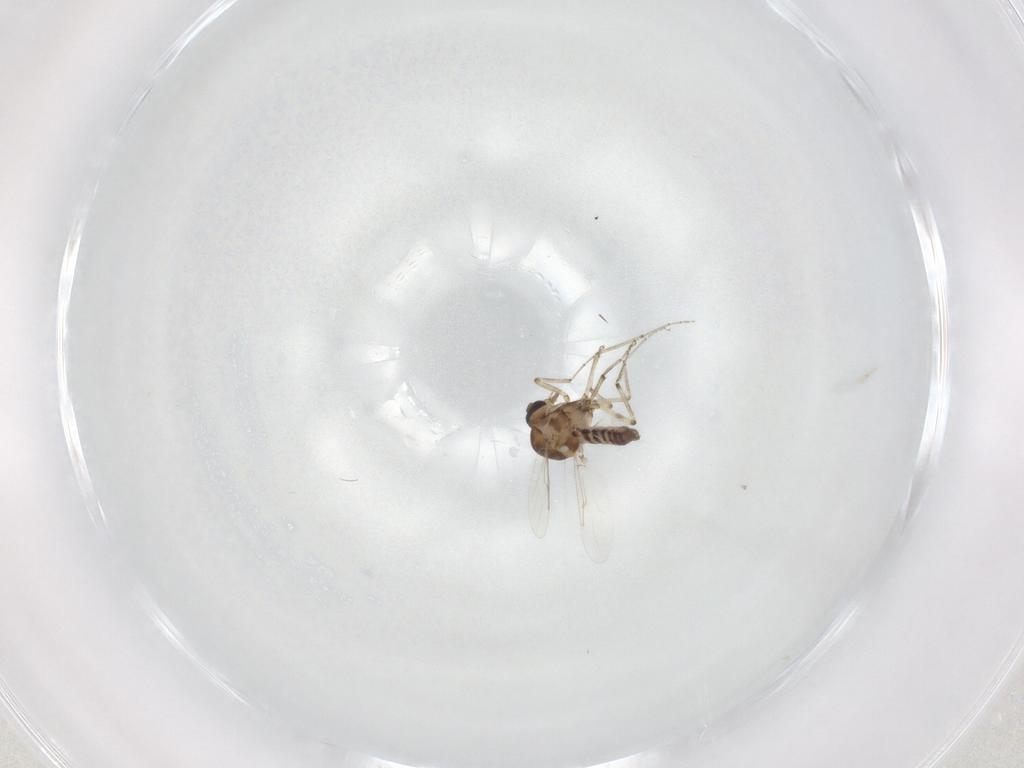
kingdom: Animalia
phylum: Arthropoda
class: Insecta
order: Diptera
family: Ceratopogonidae
